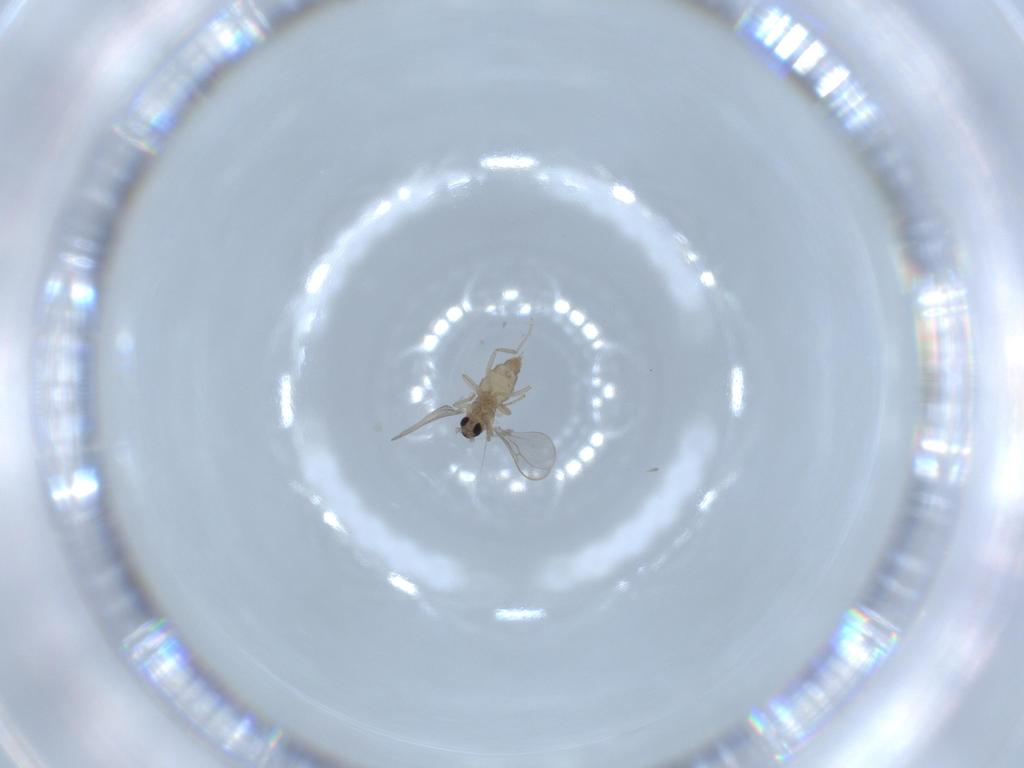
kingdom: Animalia
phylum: Arthropoda
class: Insecta
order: Diptera
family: Cecidomyiidae
